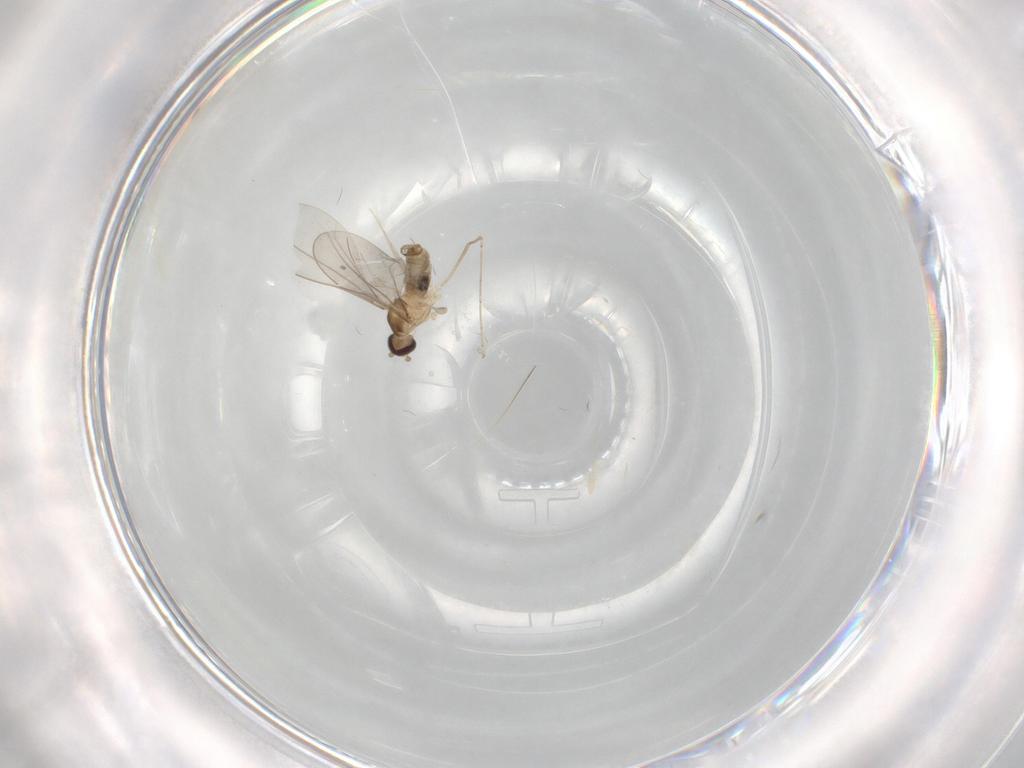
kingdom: Animalia
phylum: Arthropoda
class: Insecta
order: Diptera
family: Cecidomyiidae
